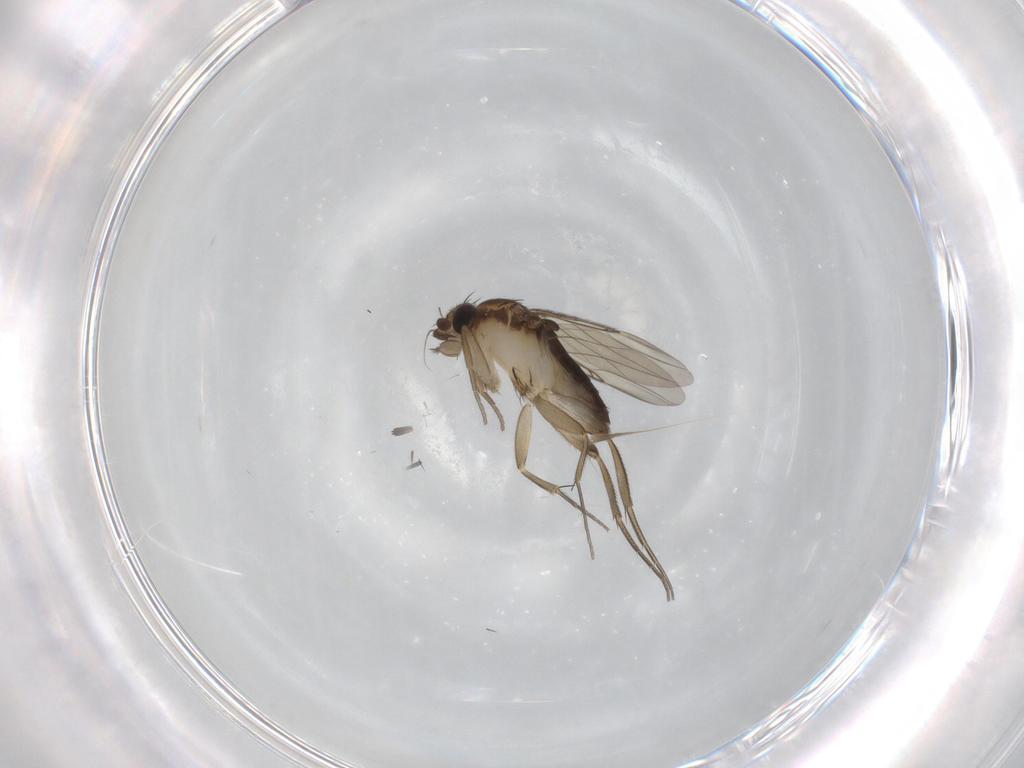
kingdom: Animalia
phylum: Arthropoda
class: Insecta
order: Diptera
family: Phoridae
